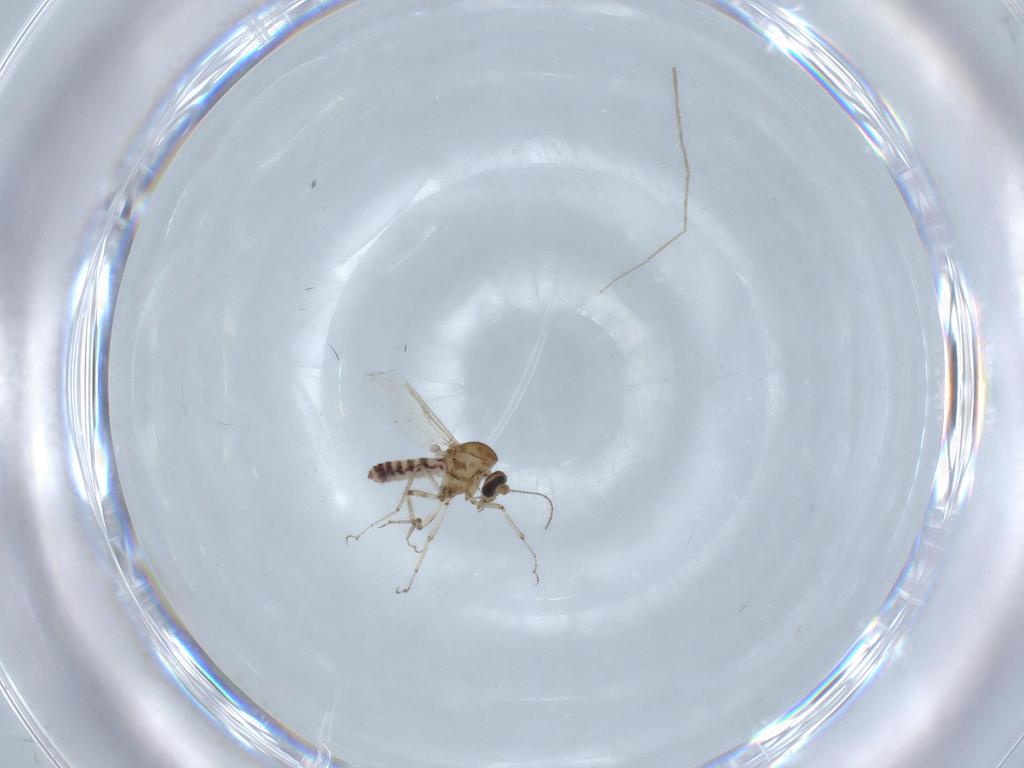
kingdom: Animalia
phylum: Arthropoda
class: Insecta
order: Diptera
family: Ceratopogonidae
